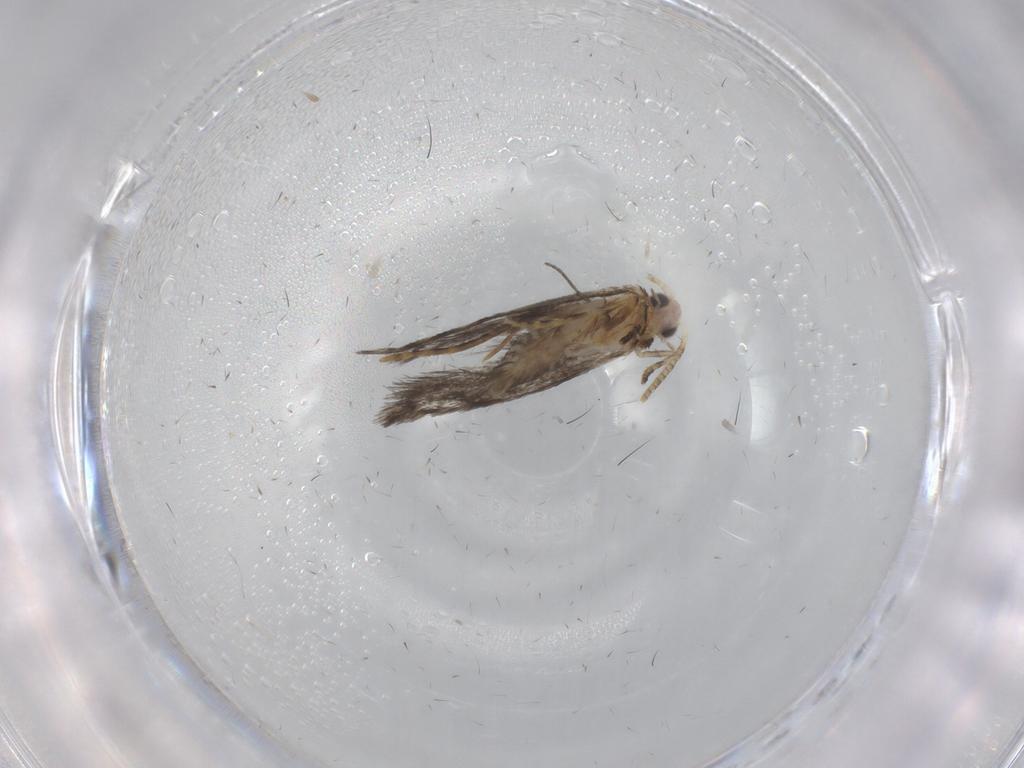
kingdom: Animalia
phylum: Arthropoda
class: Insecta
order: Lepidoptera
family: Tineidae
